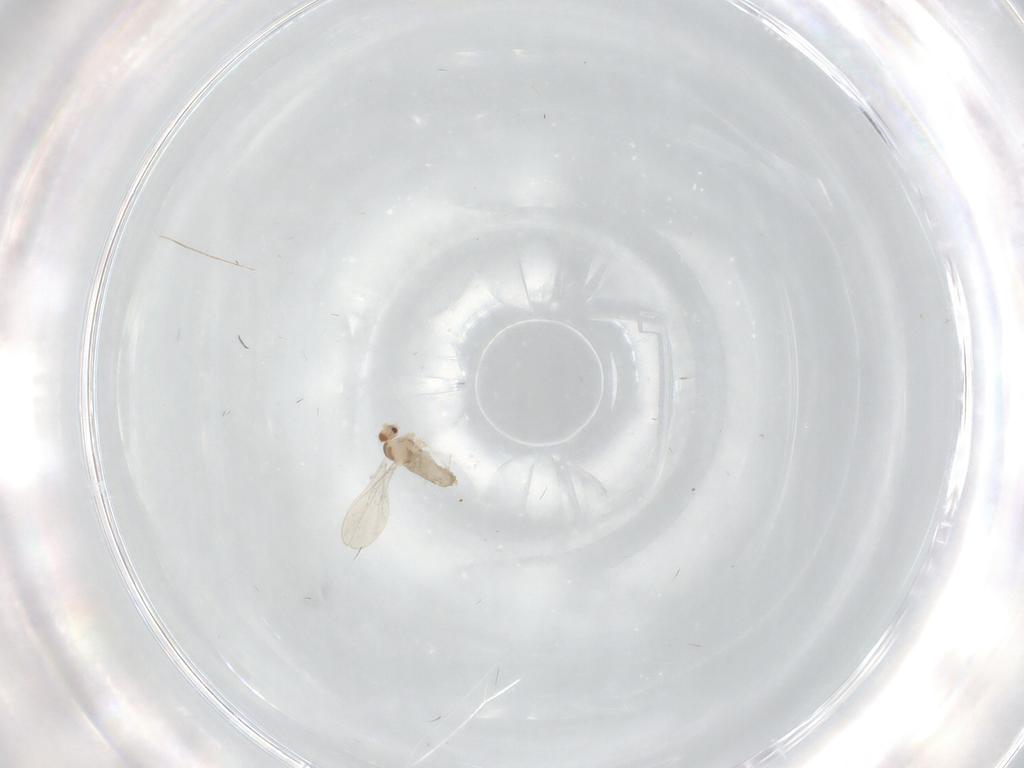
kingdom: Animalia
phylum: Arthropoda
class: Insecta
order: Diptera
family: Cecidomyiidae
